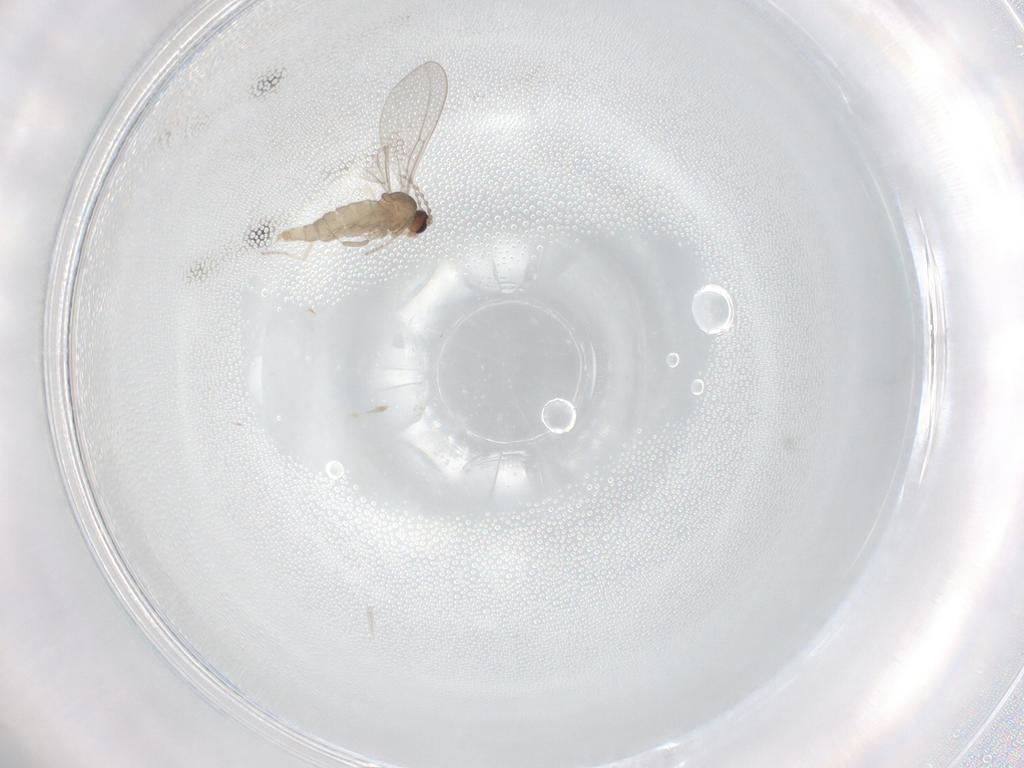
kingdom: Animalia
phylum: Arthropoda
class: Insecta
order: Diptera
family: Cecidomyiidae
